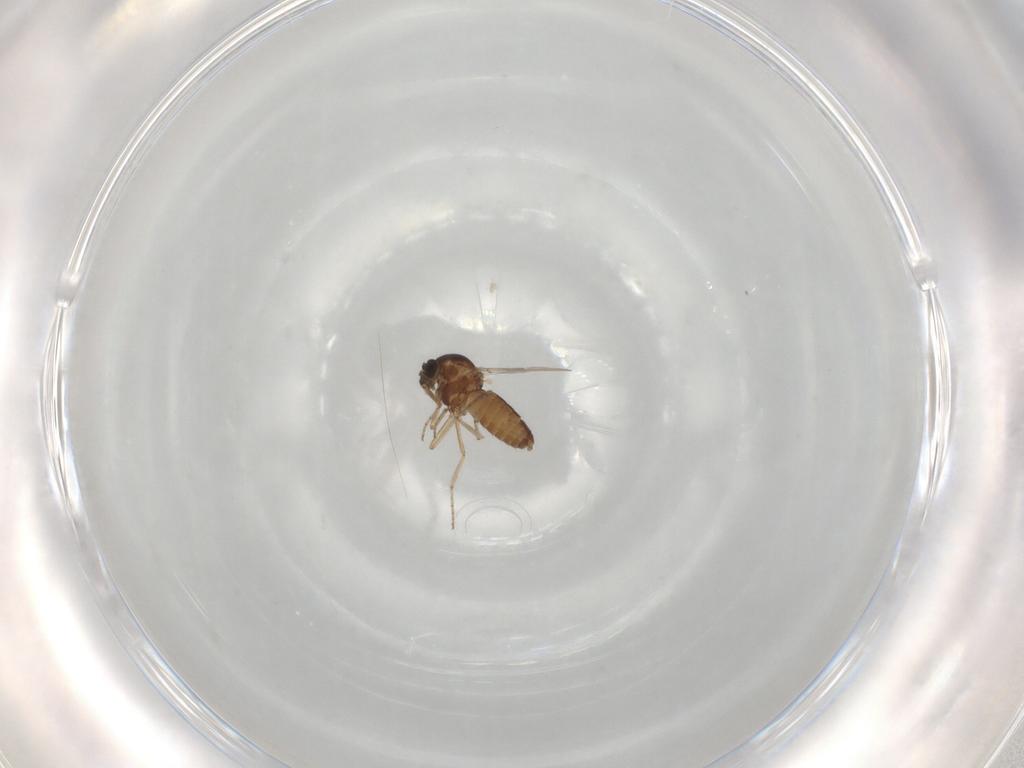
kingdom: Animalia
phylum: Arthropoda
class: Insecta
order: Diptera
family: Ceratopogonidae
